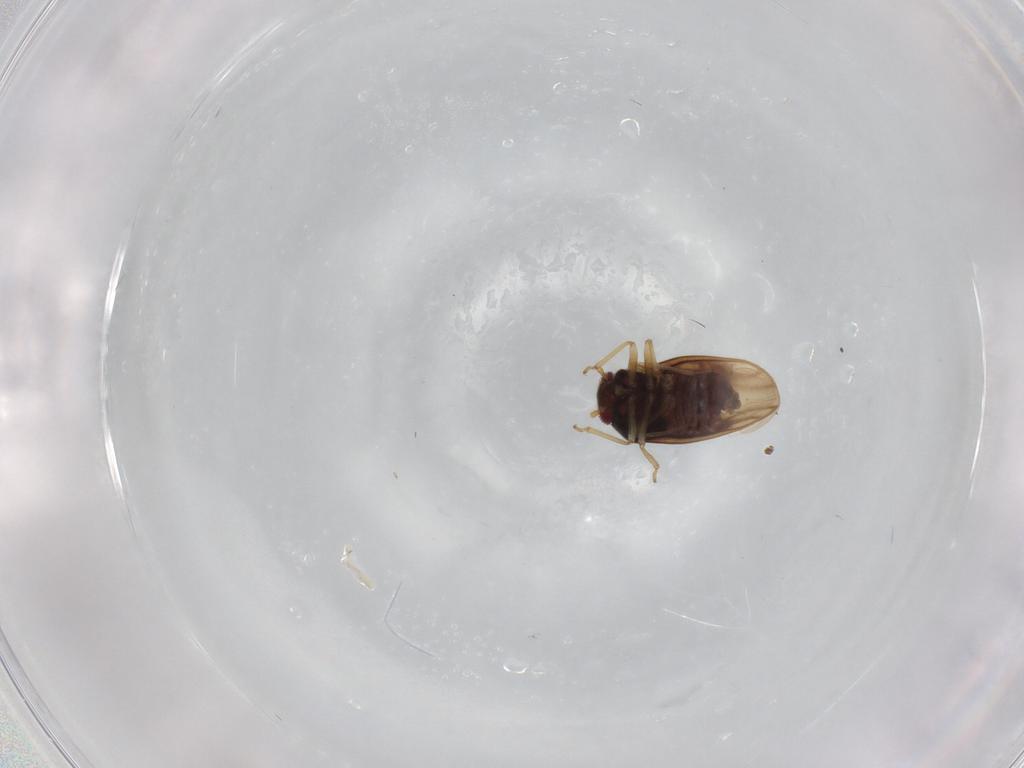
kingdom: Animalia
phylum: Arthropoda
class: Insecta
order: Hemiptera
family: Schizopteridae
